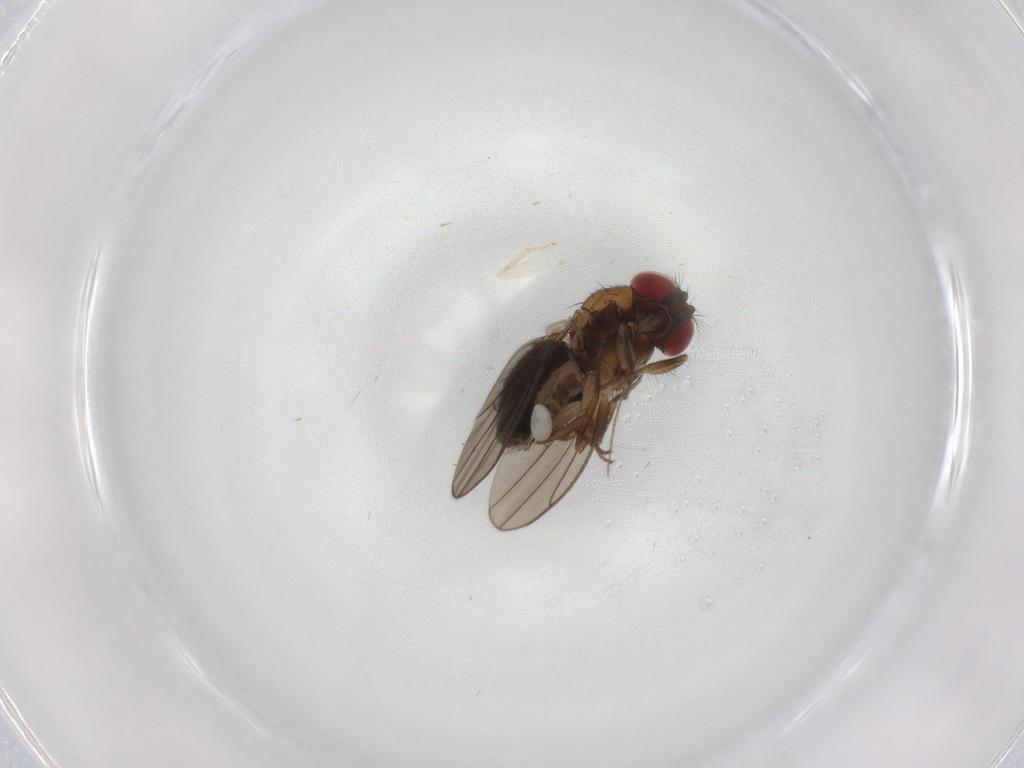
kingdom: Animalia
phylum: Arthropoda
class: Insecta
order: Diptera
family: Drosophilidae
